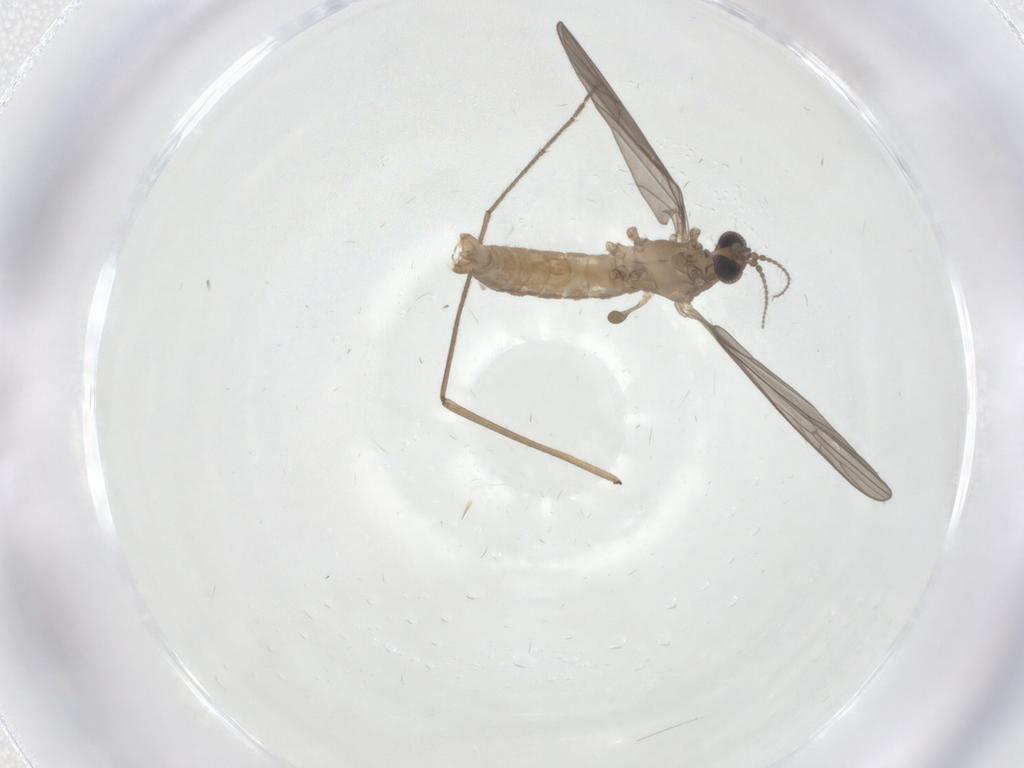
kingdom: Animalia
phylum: Arthropoda
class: Insecta
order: Diptera
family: Limoniidae
